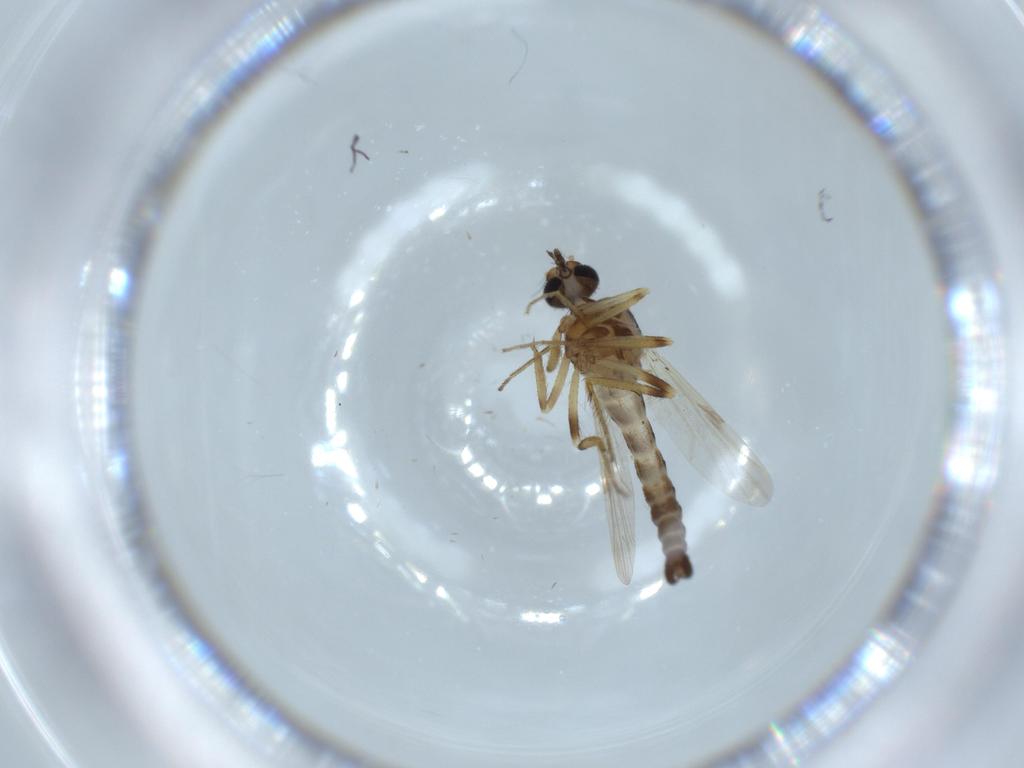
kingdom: Animalia
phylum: Arthropoda
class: Insecta
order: Diptera
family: Ceratopogonidae
